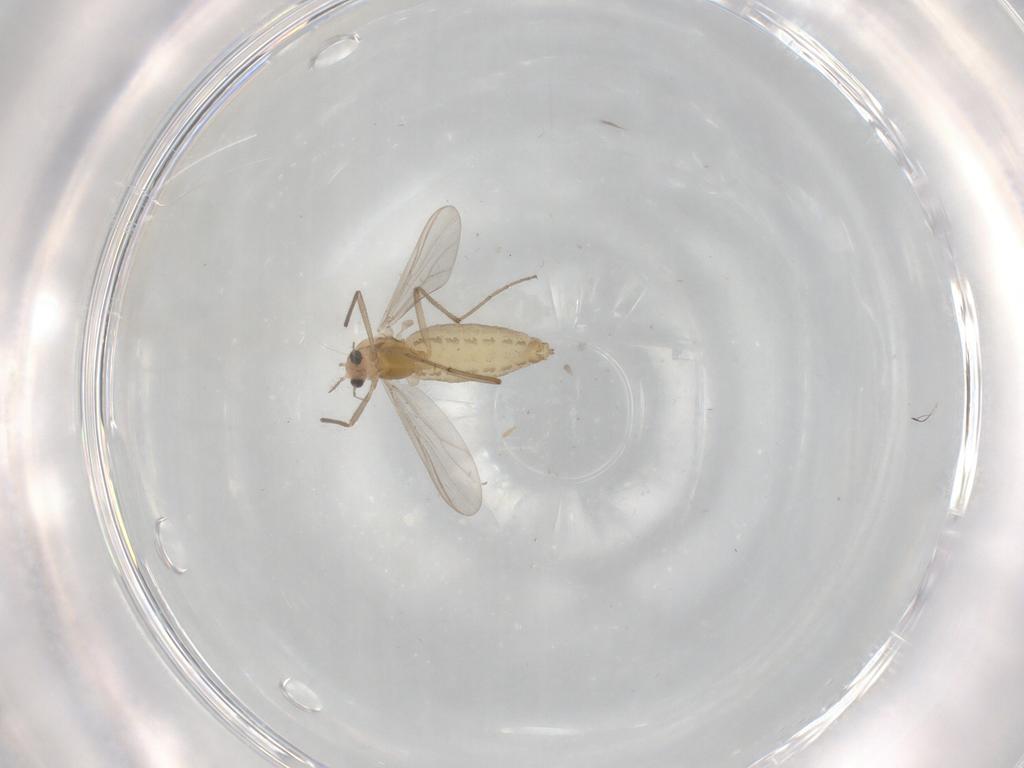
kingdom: Animalia
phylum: Arthropoda
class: Insecta
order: Diptera
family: Chironomidae
